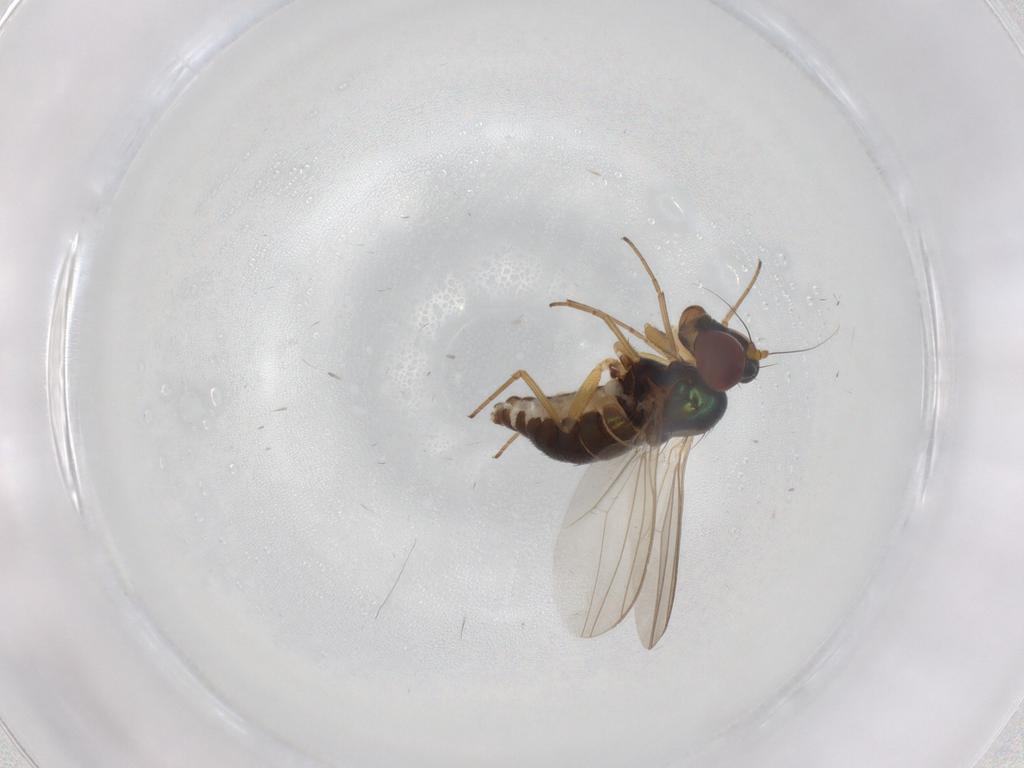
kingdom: Animalia
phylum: Arthropoda
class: Insecta
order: Diptera
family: Dolichopodidae
